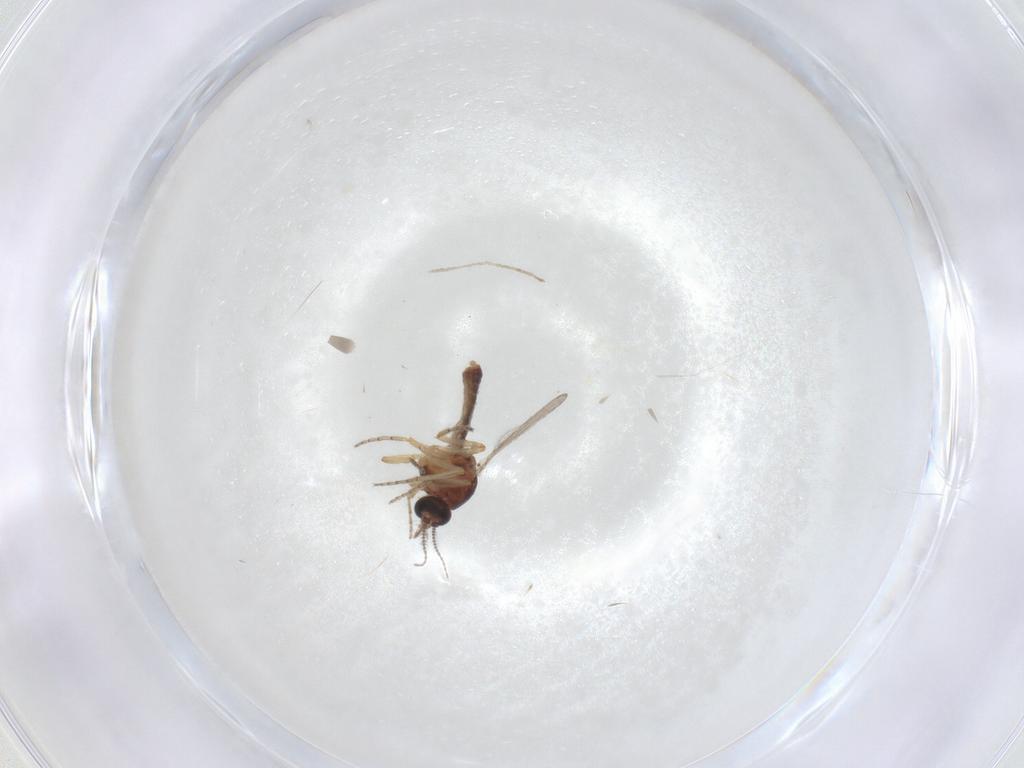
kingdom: Animalia
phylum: Arthropoda
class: Insecta
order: Diptera
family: Ceratopogonidae
